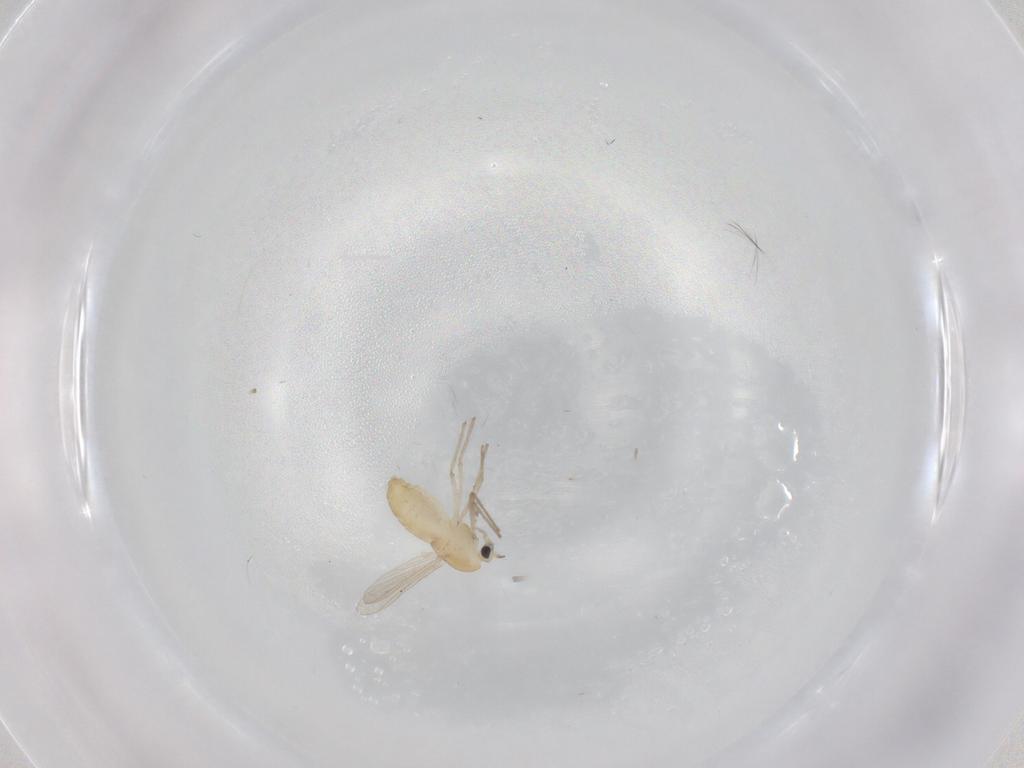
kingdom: Animalia
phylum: Arthropoda
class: Insecta
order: Diptera
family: Chironomidae
